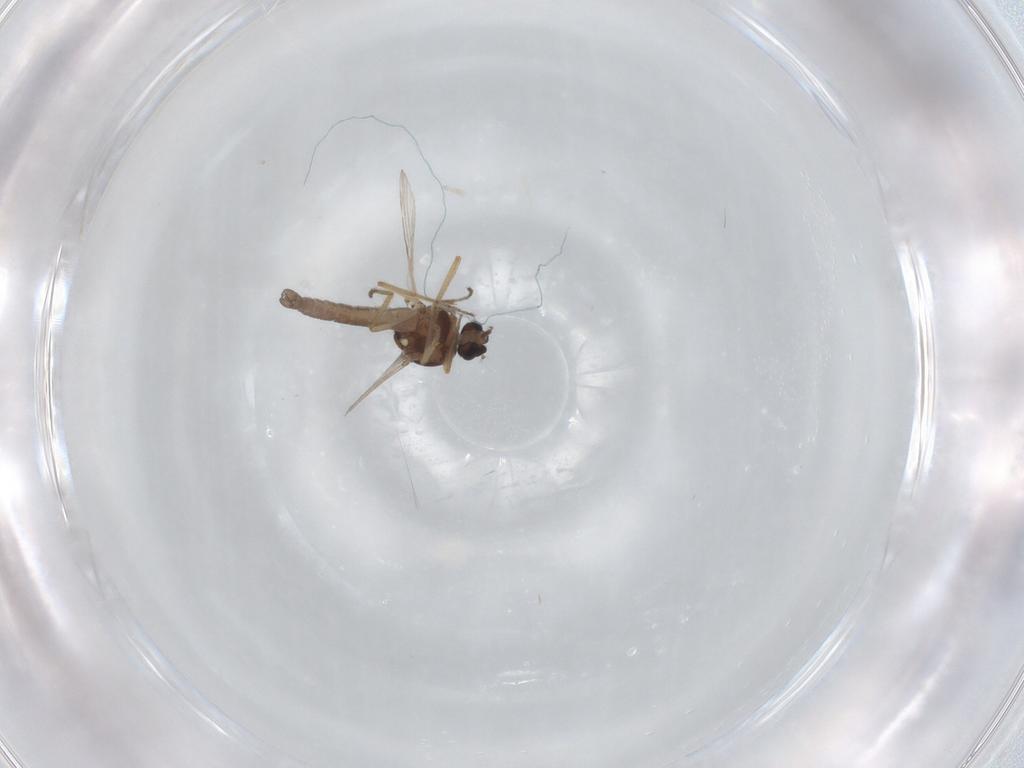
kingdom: Animalia
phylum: Arthropoda
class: Insecta
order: Diptera
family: Ceratopogonidae
